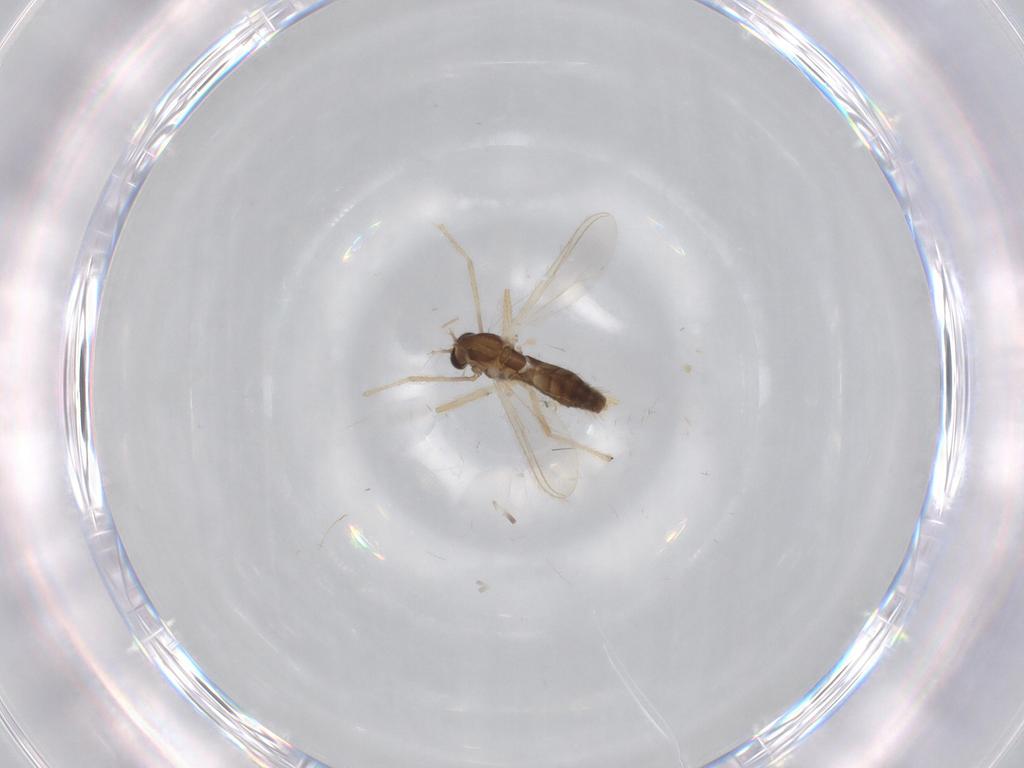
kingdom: Animalia
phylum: Arthropoda
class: Insecta
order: Diptera
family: Chironomidae
